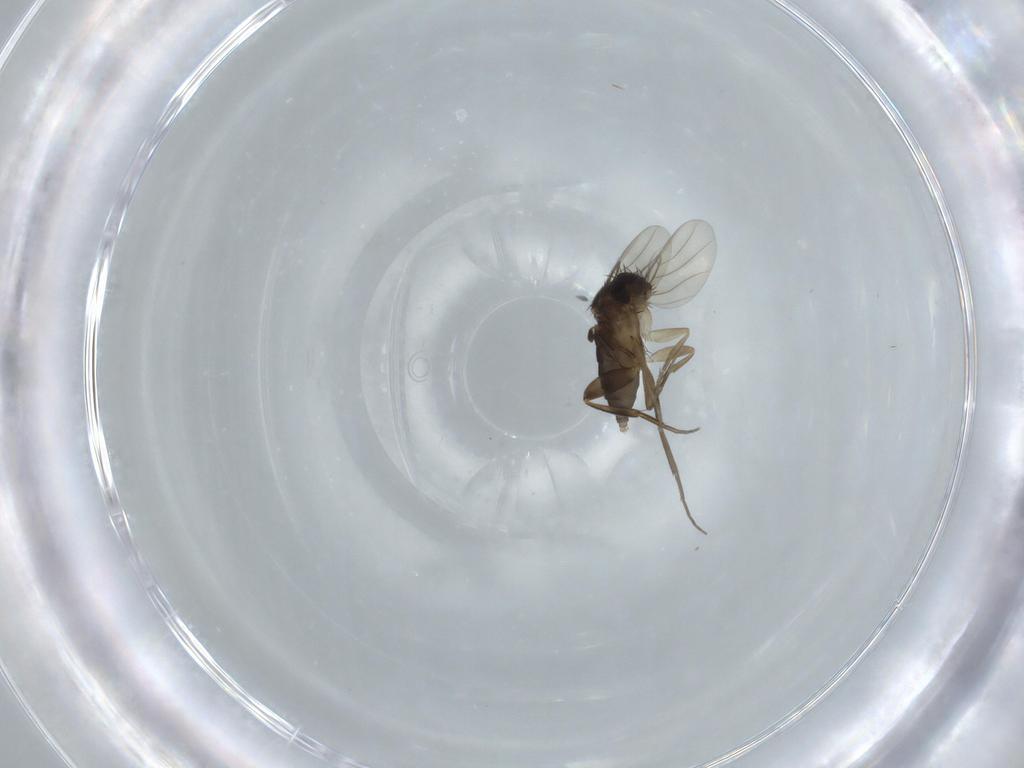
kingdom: Animalia
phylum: Arthropoda
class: Insecta
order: Diptera
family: Phoridae
